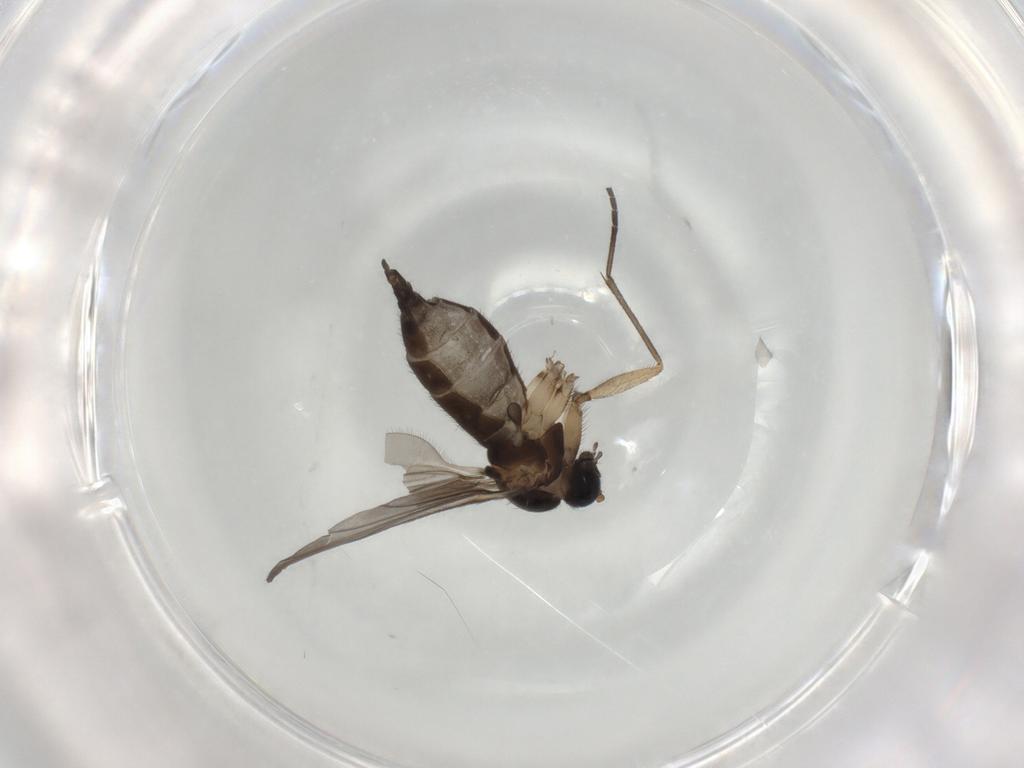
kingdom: Animalia
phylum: Arthropoda
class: Insecta
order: Diptera
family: Sciaridae
